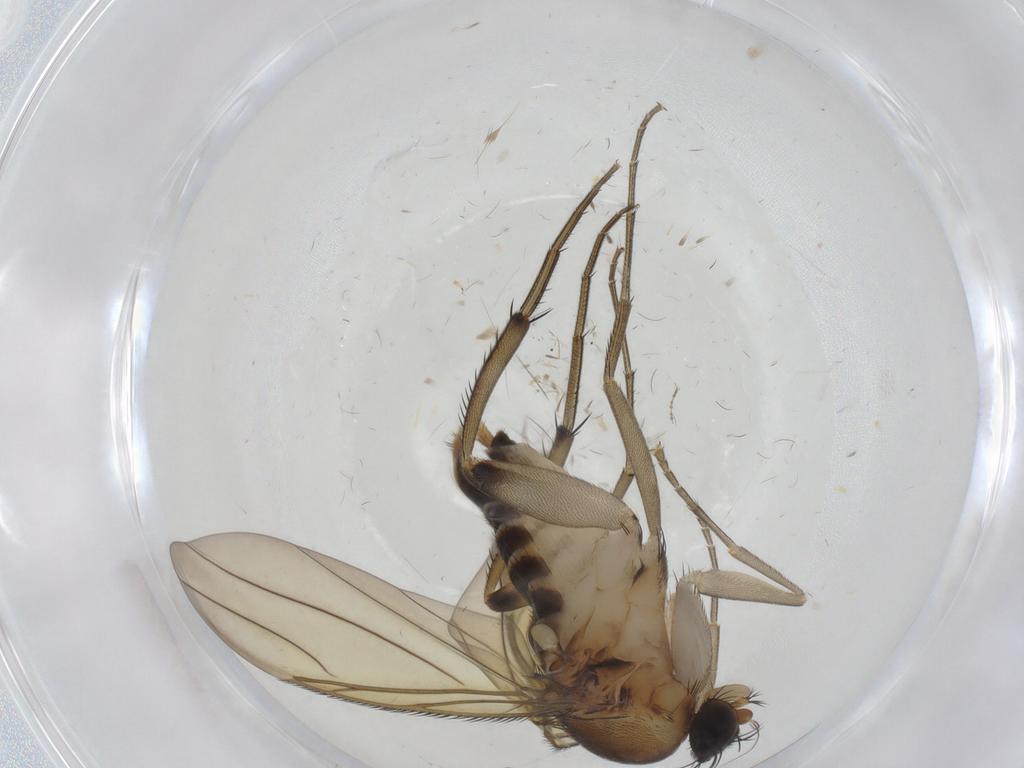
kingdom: Animalia
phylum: Arthropoda
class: Insecta
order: Diptera
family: Phoridae
